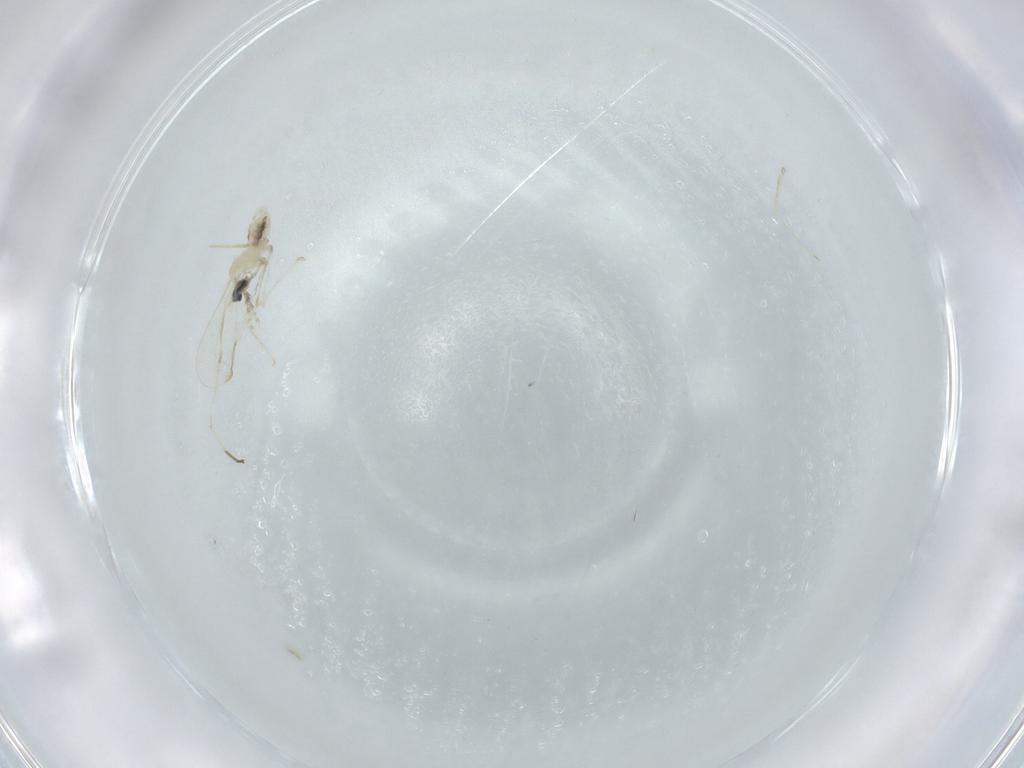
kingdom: Animalia
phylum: Arthropoda
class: Insecta
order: Diptera
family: Cecidomyiidae
